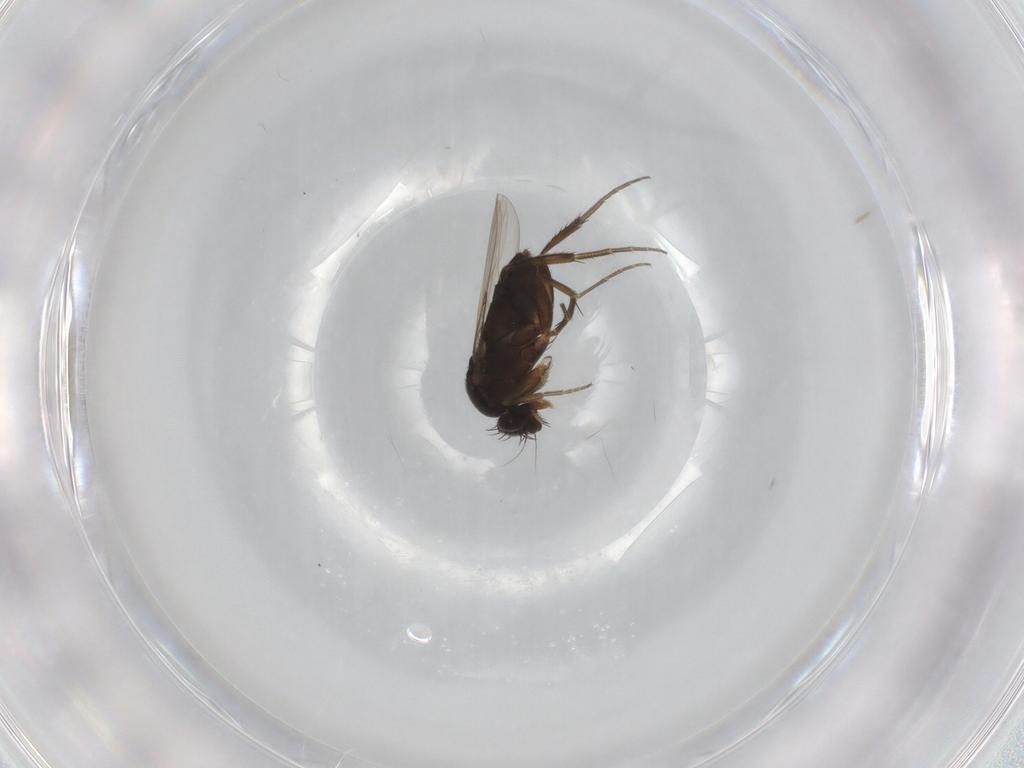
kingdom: Animalia
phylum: Arthropoda
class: Insecta
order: Diptera
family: Phoridae
